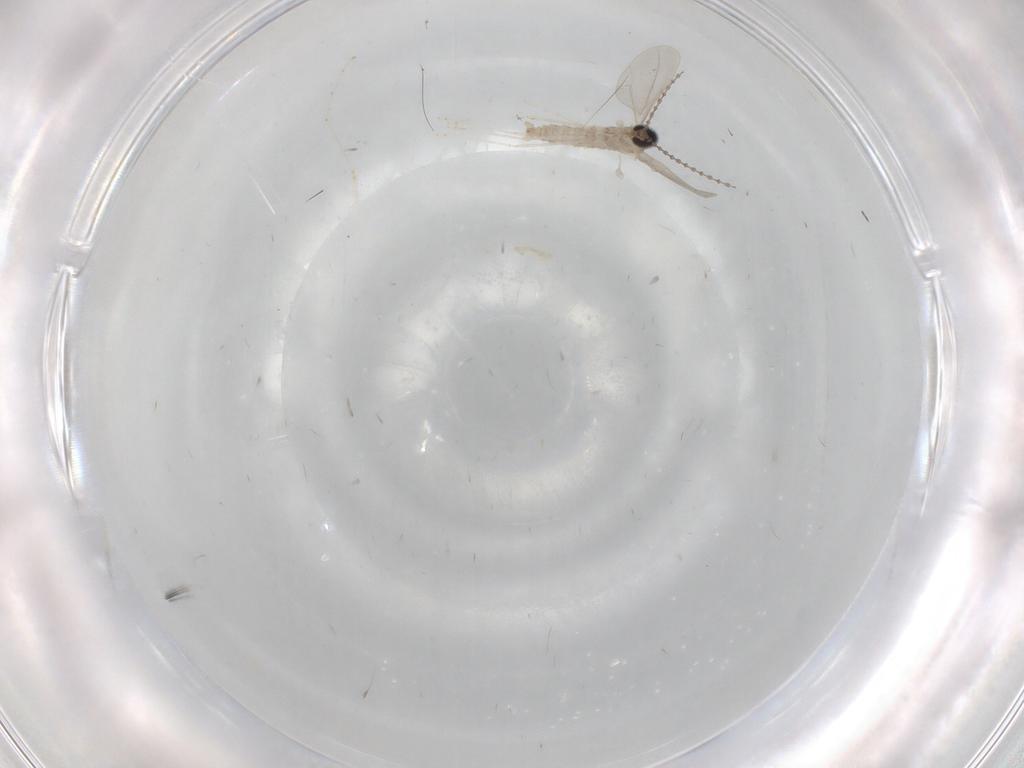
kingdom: Animalia
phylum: Arthropoda
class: Insecta
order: Diptera
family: Cecidomyiidae
